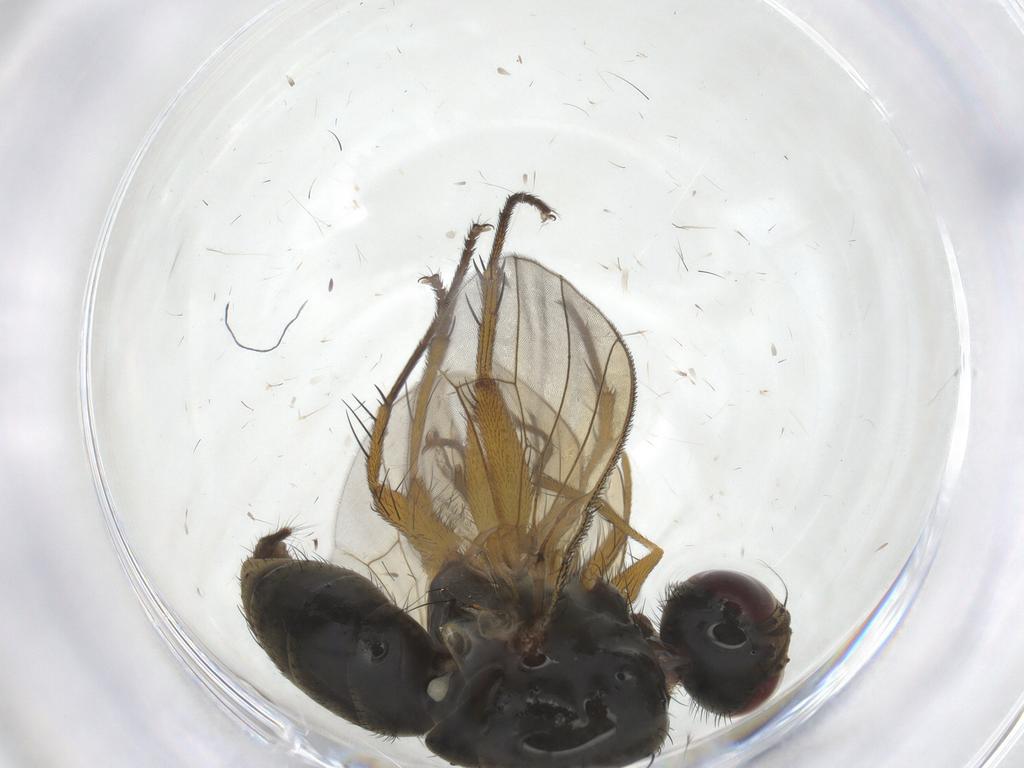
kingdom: Animalia
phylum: Arthropoda
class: Insecta
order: Diptera
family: Muscidae
